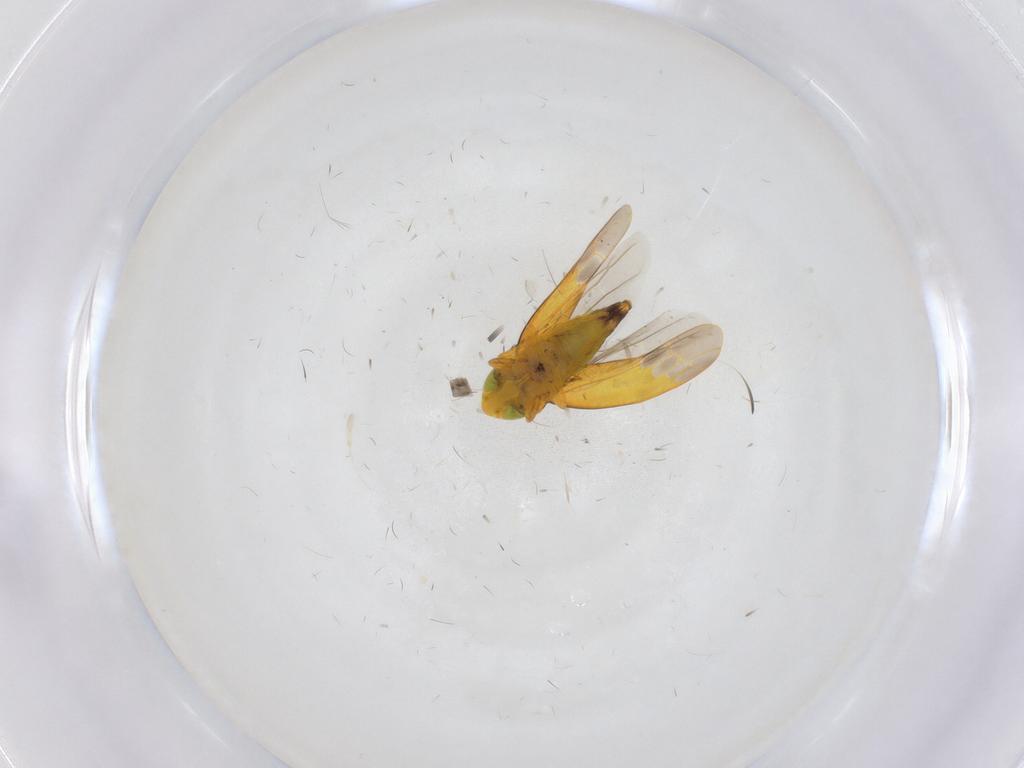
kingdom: Animalia
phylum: Arthropoda
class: Insecta
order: Hemiptera
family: Cicadellidae
